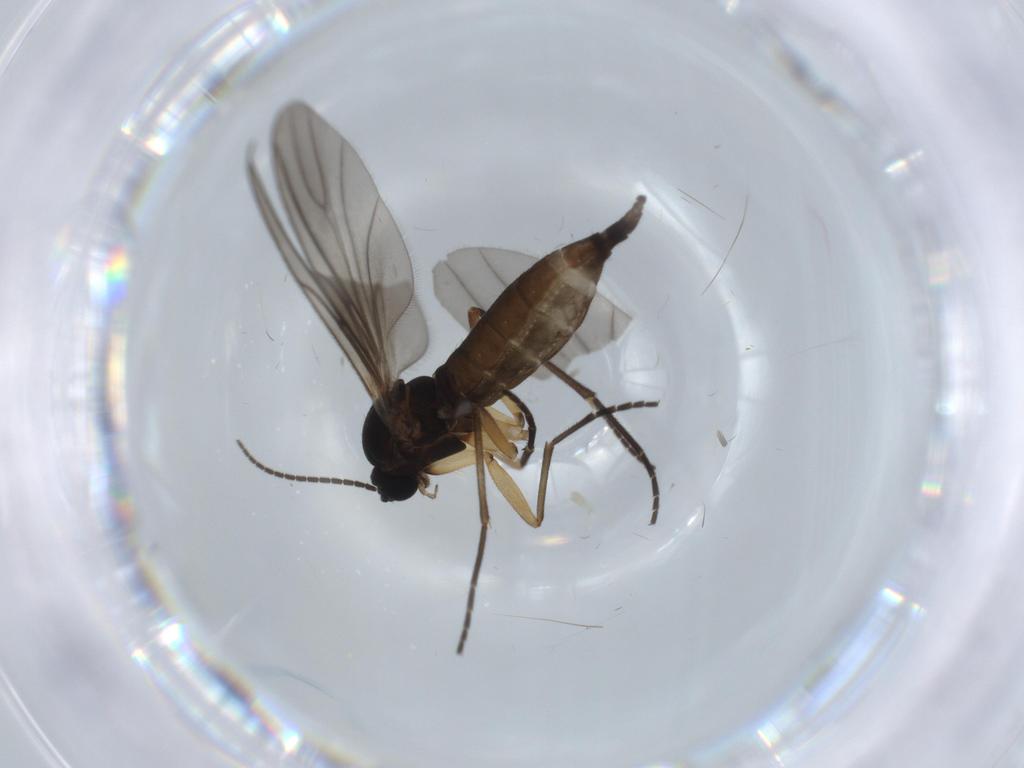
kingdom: Animalia
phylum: Arthropoda
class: Insecta
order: Diptera
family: Sciaridae
